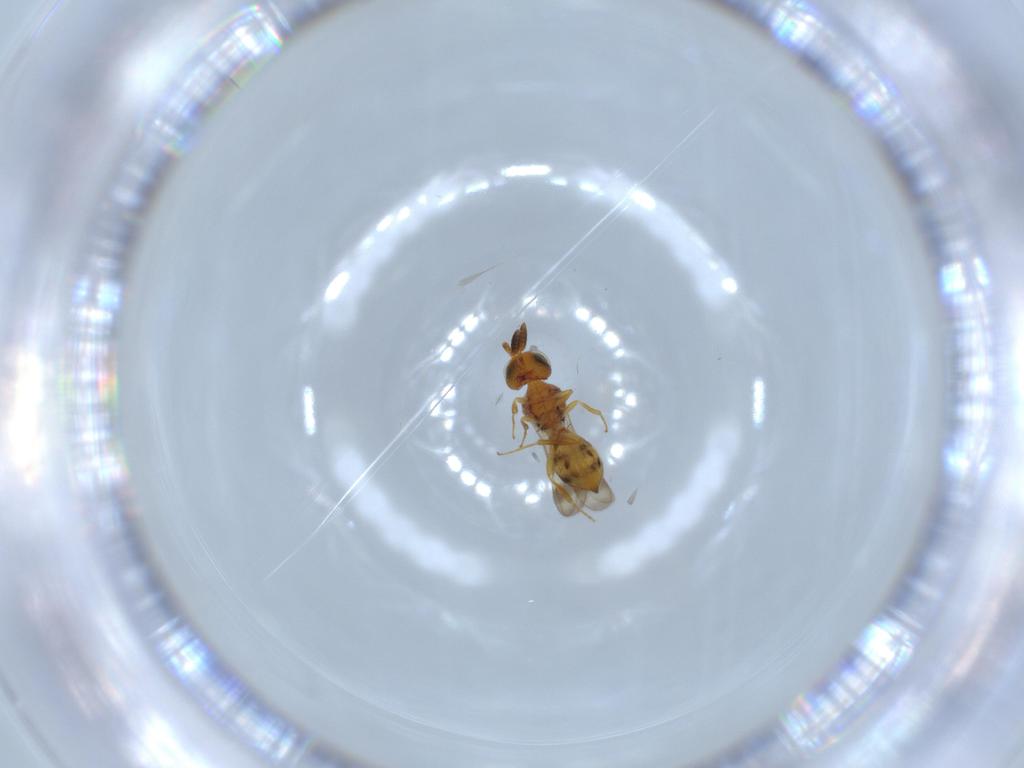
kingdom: Animalia
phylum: Arthropoda
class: Insecta
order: Hymenoptera
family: Scelionidae
